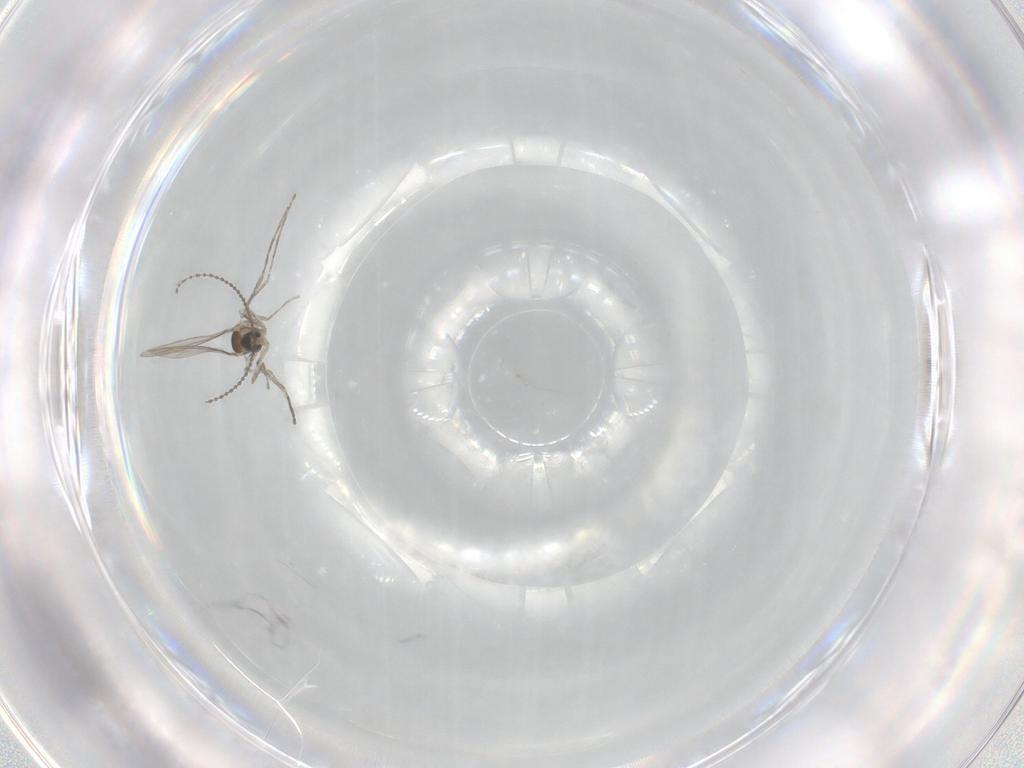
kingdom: Animalia
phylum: Arthropoda
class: Insecta
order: Diptera
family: Cecidomyiidae
